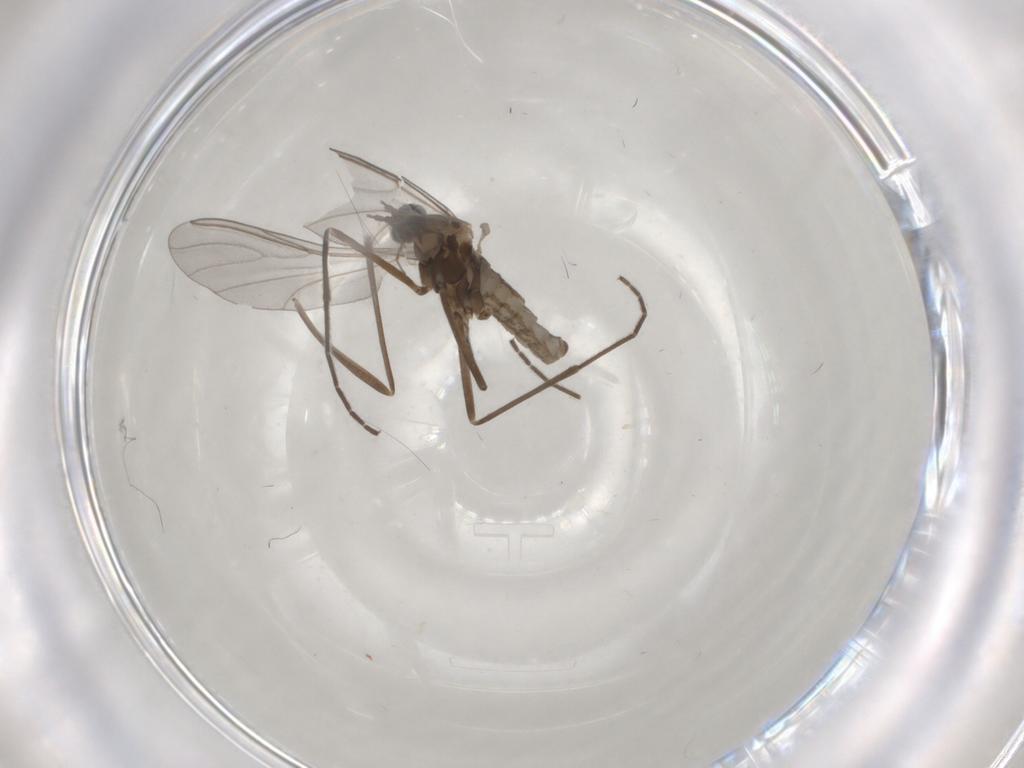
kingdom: Animalia
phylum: Arthropoda
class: Insecta
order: Diptera
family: Cecidomyiidae
